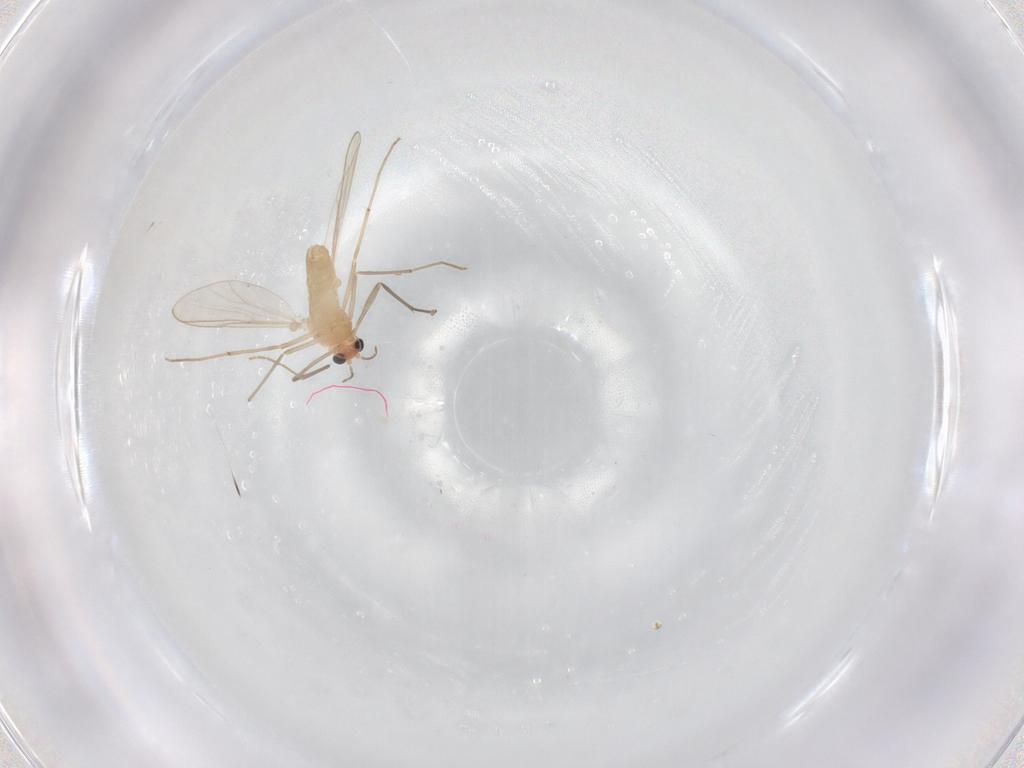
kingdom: Animalia
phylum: Arthropoda
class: Insecta
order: Diptera
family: Chironomidae
